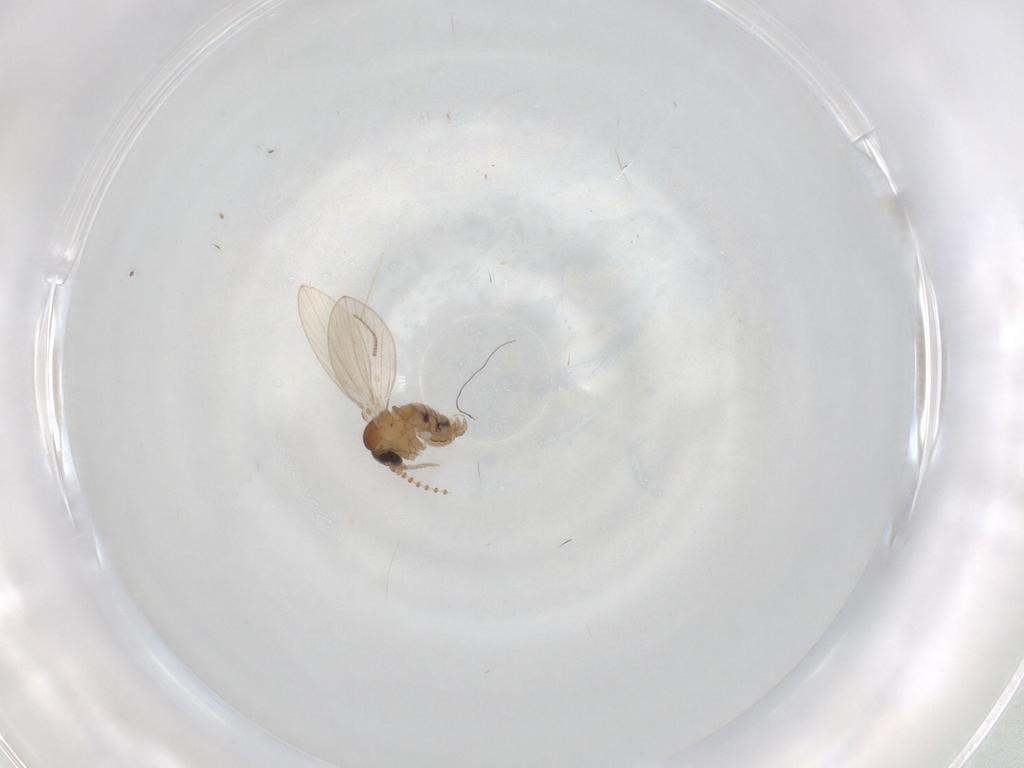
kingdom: Animalia
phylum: Arthropoda
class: Insecta
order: Diptera
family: Psychodidae
